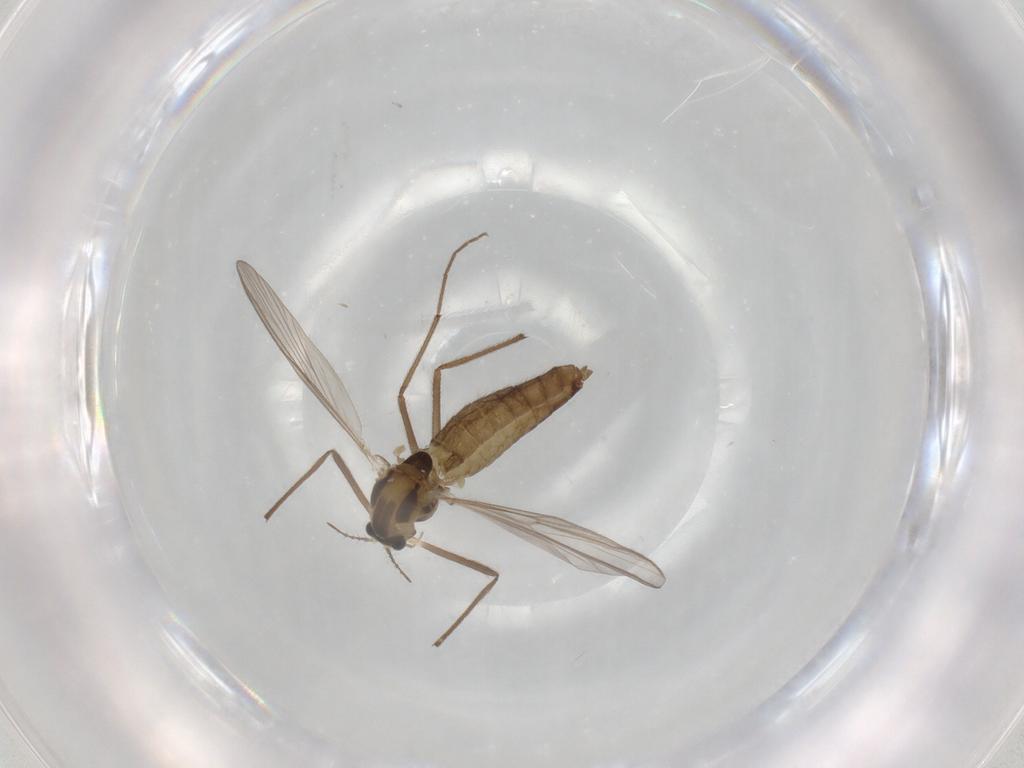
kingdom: Animalia
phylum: Arthropoda
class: Insecta
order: Diptera
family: Chironomidae
